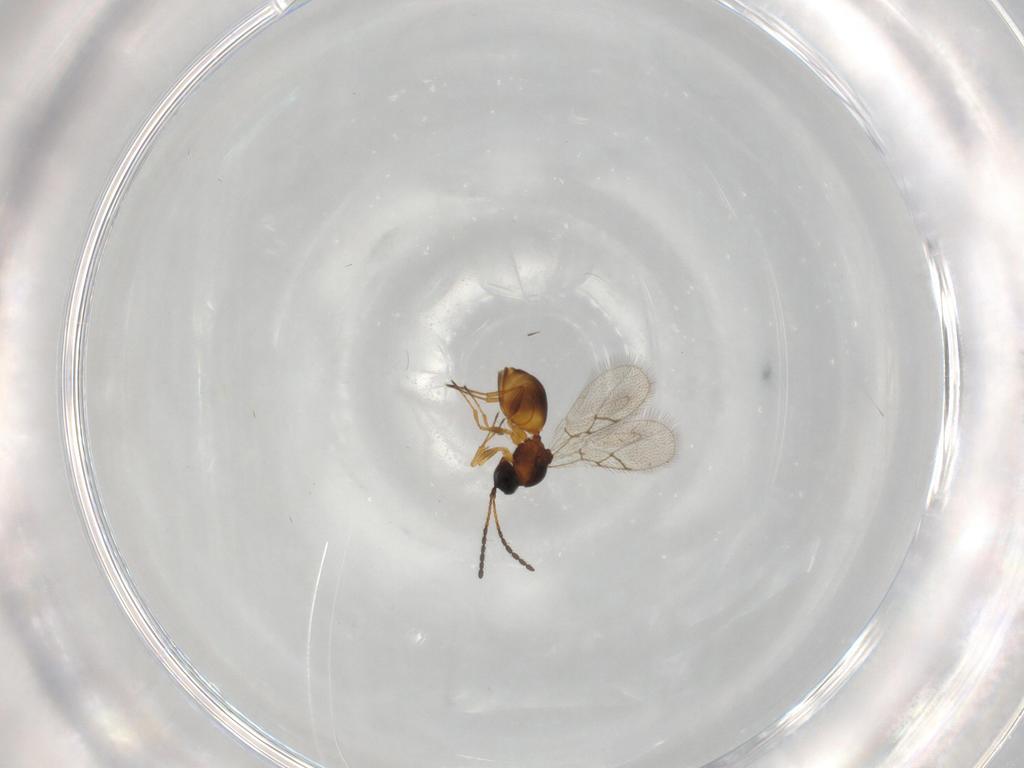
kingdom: Animalia
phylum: Arthropoda
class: Insecta
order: Hymenoptera
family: Figitidae
